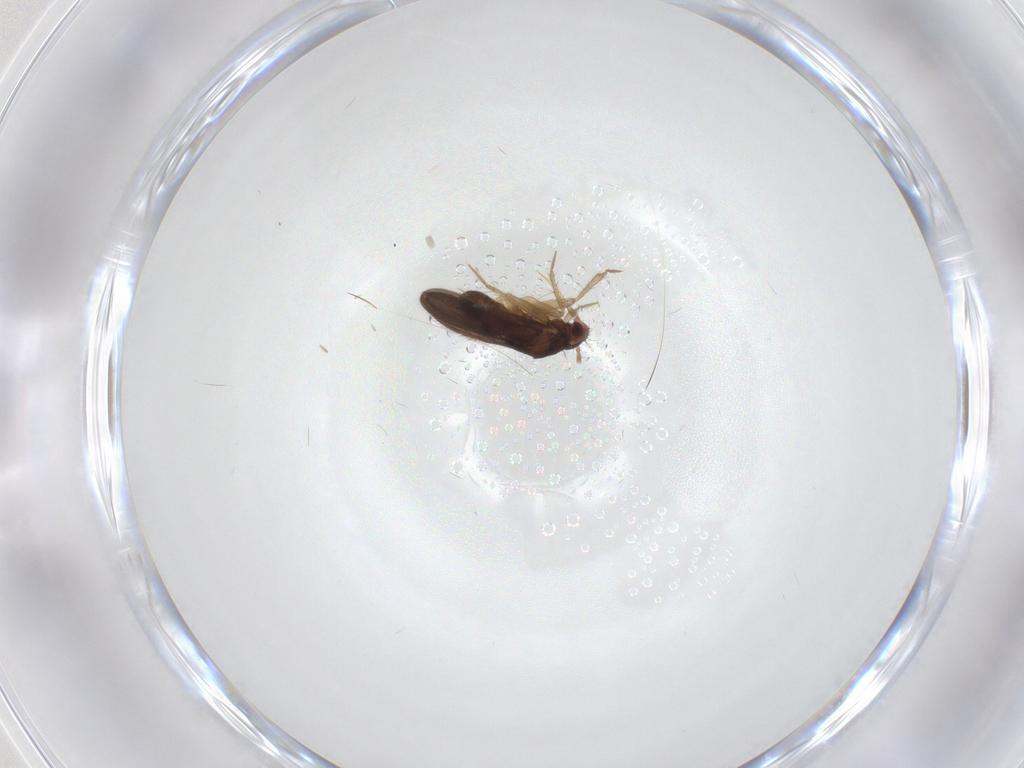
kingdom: Animalia
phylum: Arthropoda
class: Insecta
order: Hemiptera
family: Ceratocombidae
